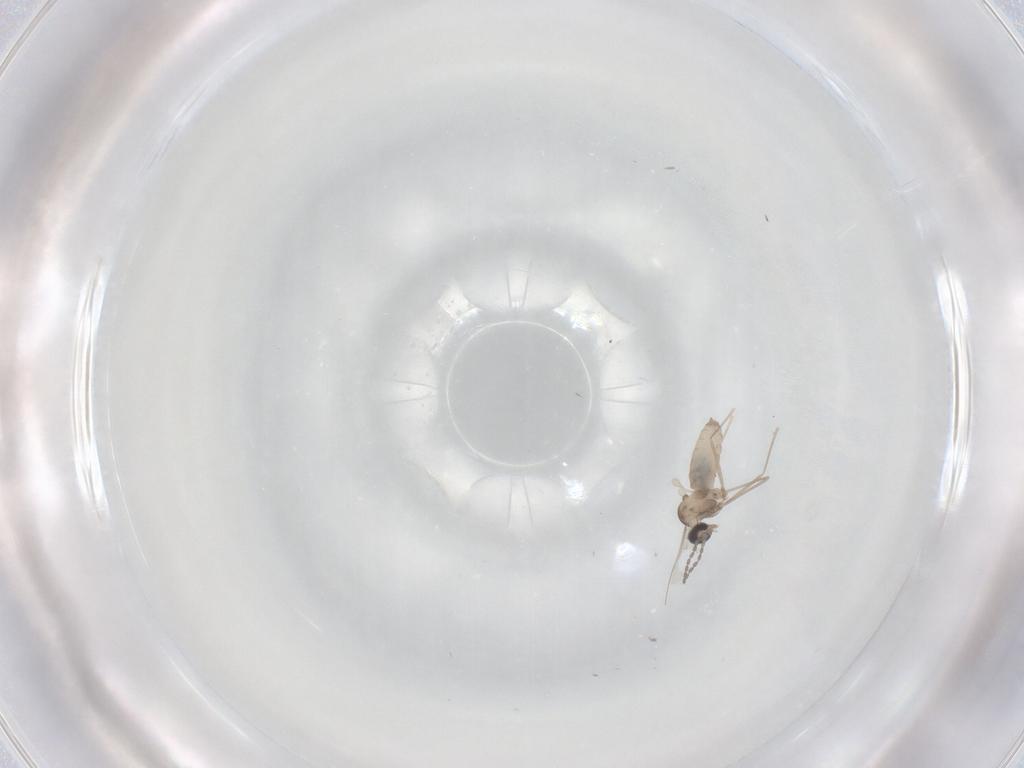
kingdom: Animalia
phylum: Arthropoda
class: Insecta
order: Diptera
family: Cecidomyiidae
